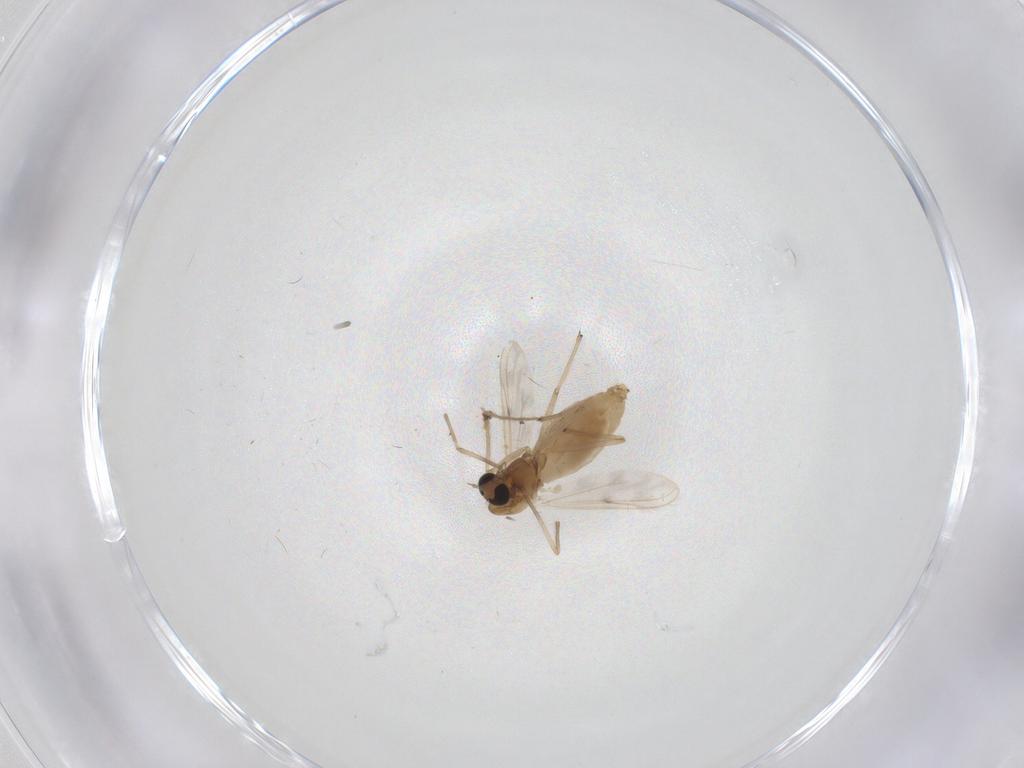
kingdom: Animalia
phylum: Arthropoda
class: Insecta
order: Diptera
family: Chironomidae
